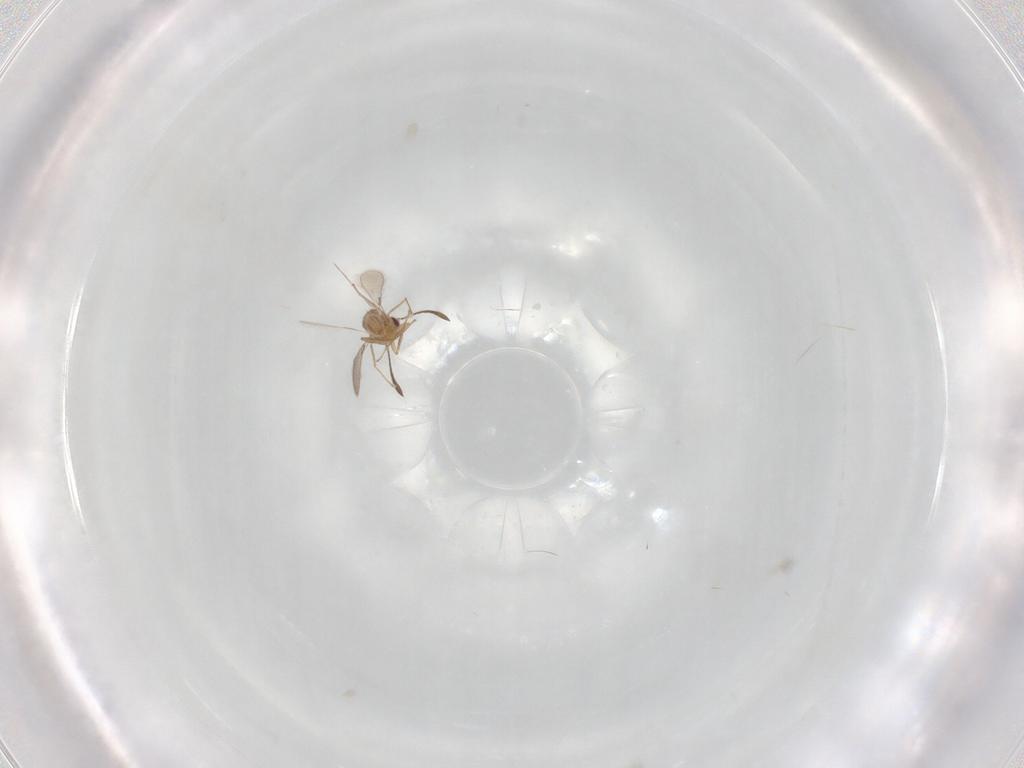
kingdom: Animalia
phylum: Arthropoda
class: Insecta
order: Hymenoptera
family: Mymaridae
